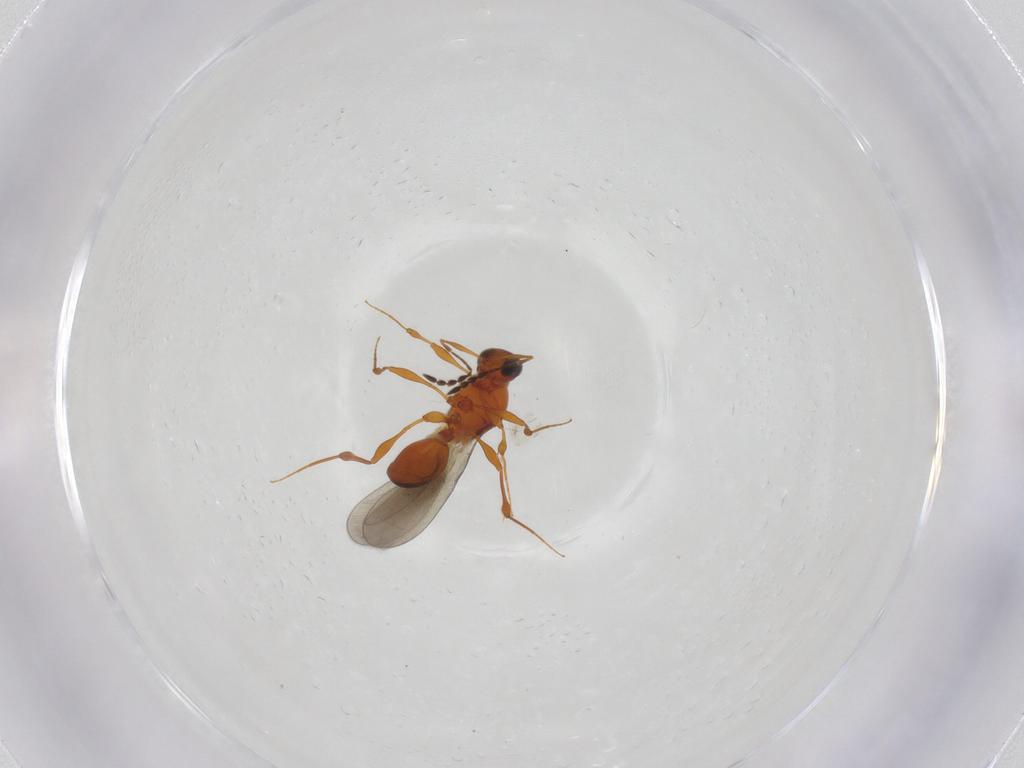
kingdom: Animalia
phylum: Arthropoda
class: Insecta
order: Hymenoptera
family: Platygastridae
